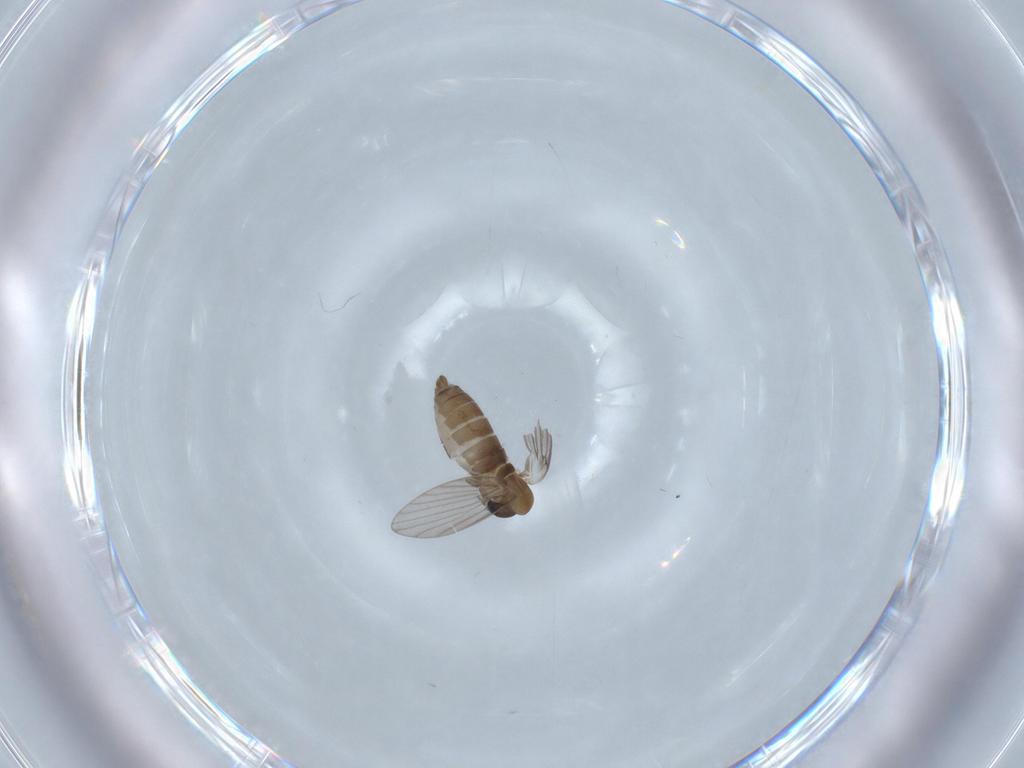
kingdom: Animalia
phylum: Arthropoda
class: Insecta
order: Diptera
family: Psychodidae
